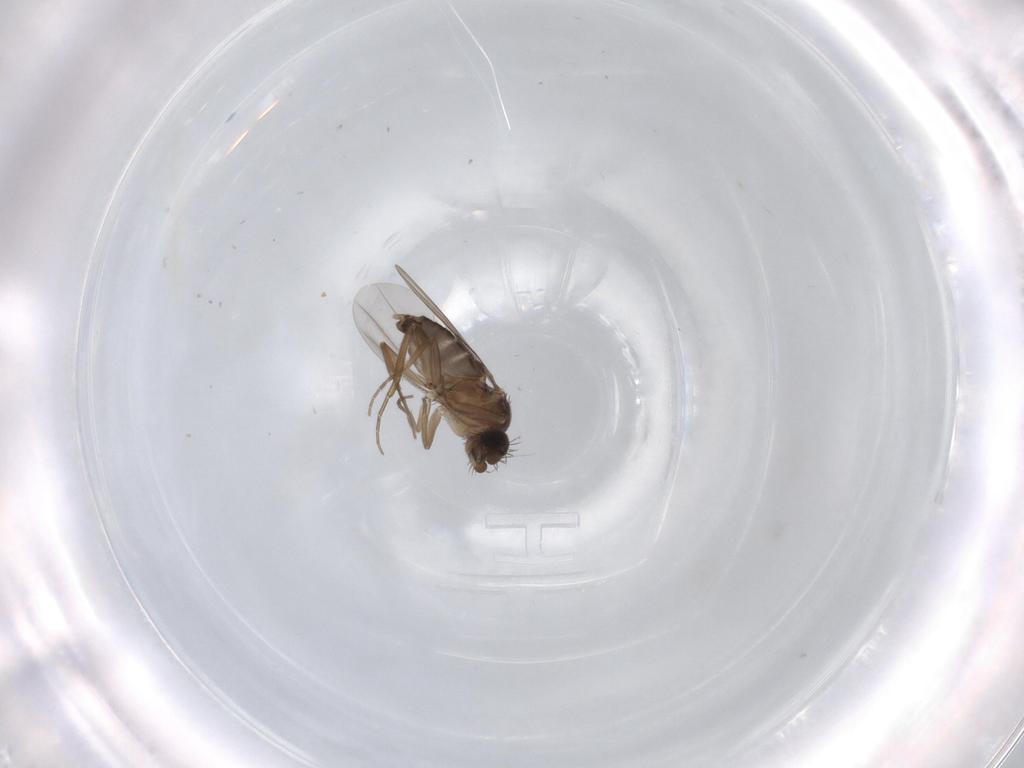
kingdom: Animalia
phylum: Arthropoda
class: Insecta
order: Diptera
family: Phoridae
